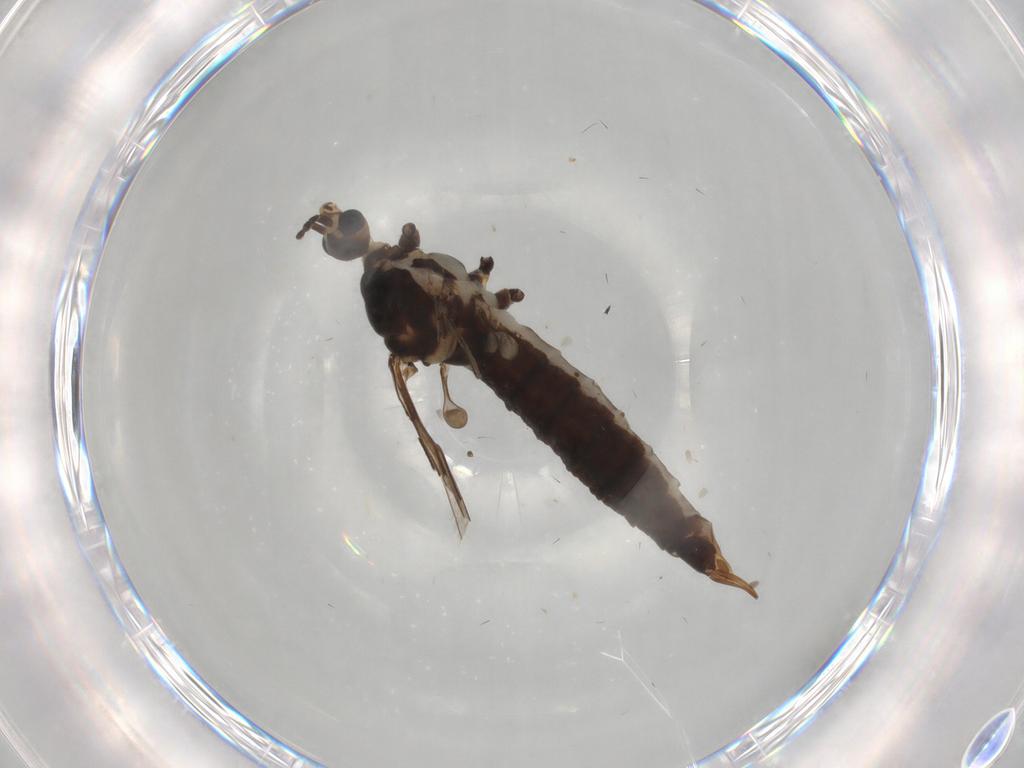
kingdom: Animalia
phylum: Arthropoda
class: Insecta
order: Diptera
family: Limoniidae
